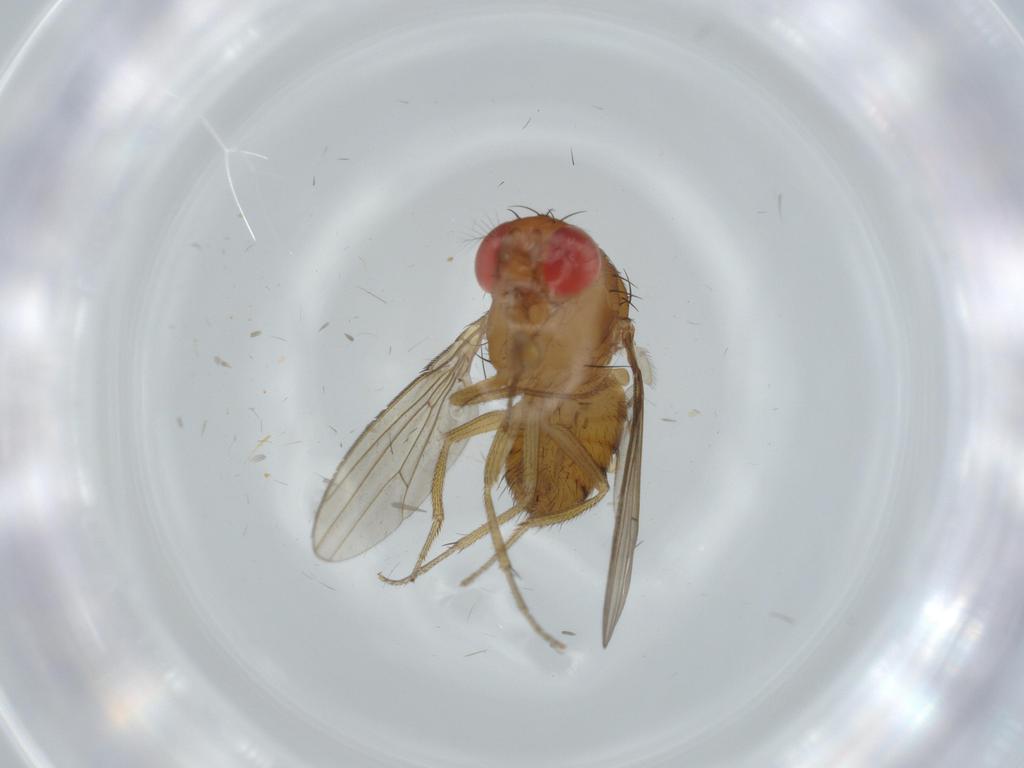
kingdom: Animalia
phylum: Arthropoda
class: Insecta
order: Diptera
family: Drosophilidae
